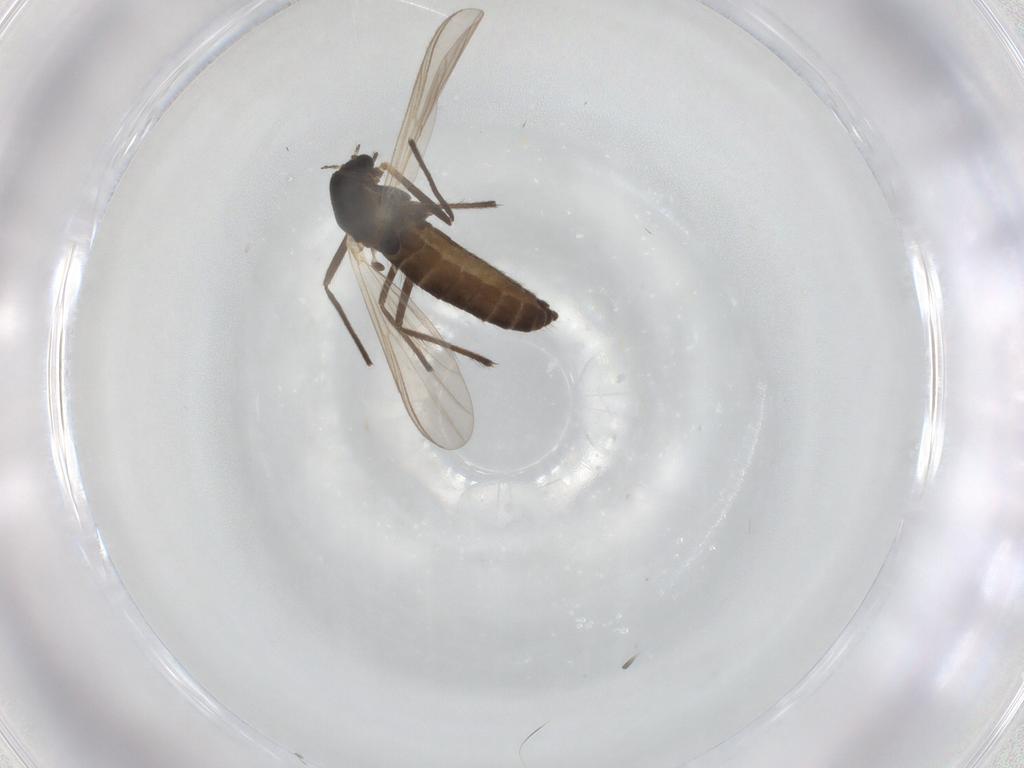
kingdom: Animalia
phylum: Arthropoda
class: Insecta
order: Diptera
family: Chironomidae
